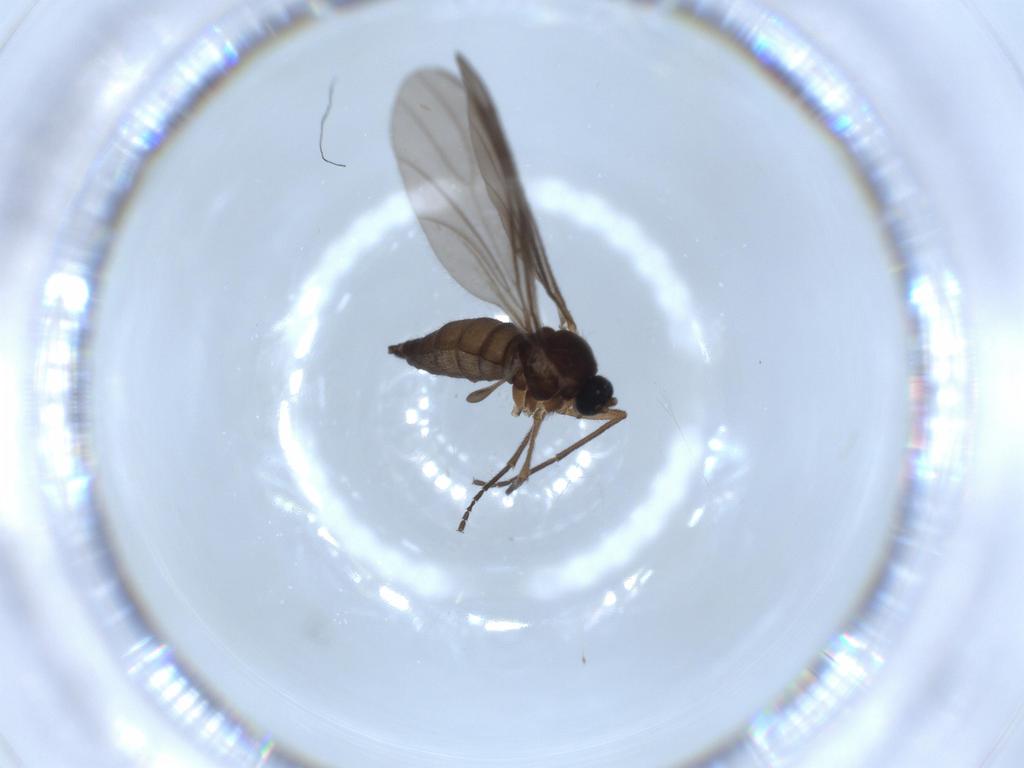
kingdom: Animalia
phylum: Arthropoda
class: Insecta
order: Diptera
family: Sciaridae
